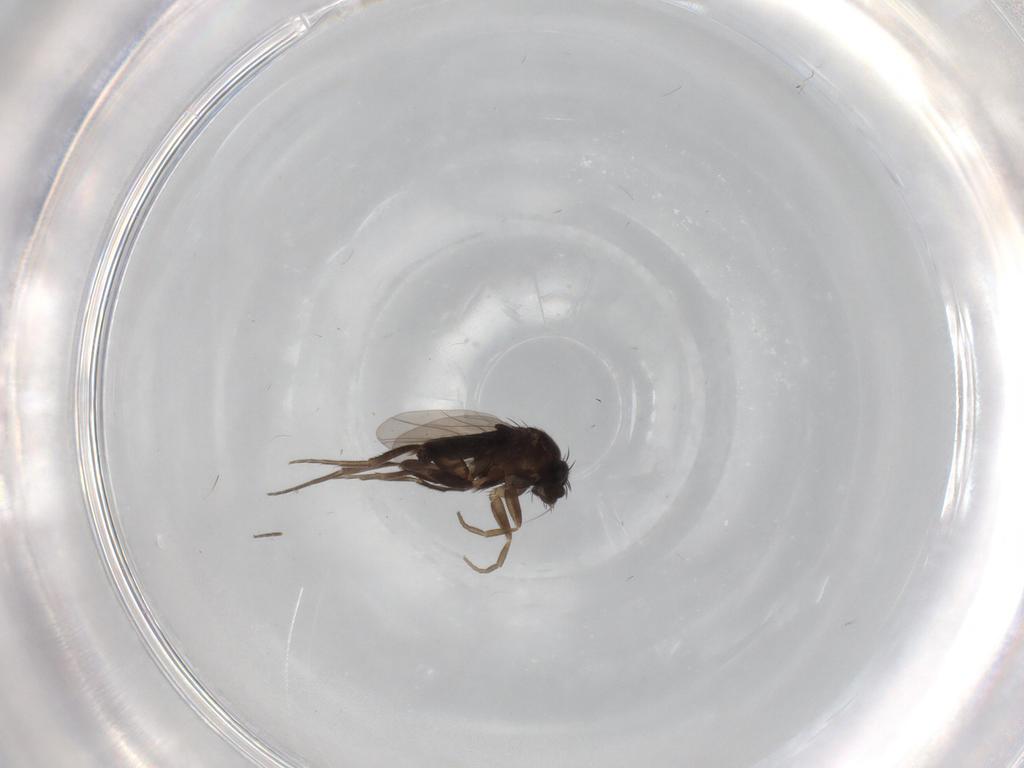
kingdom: Animalia
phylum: Arthropoda
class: Insecta
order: Diptera
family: Phoridae
